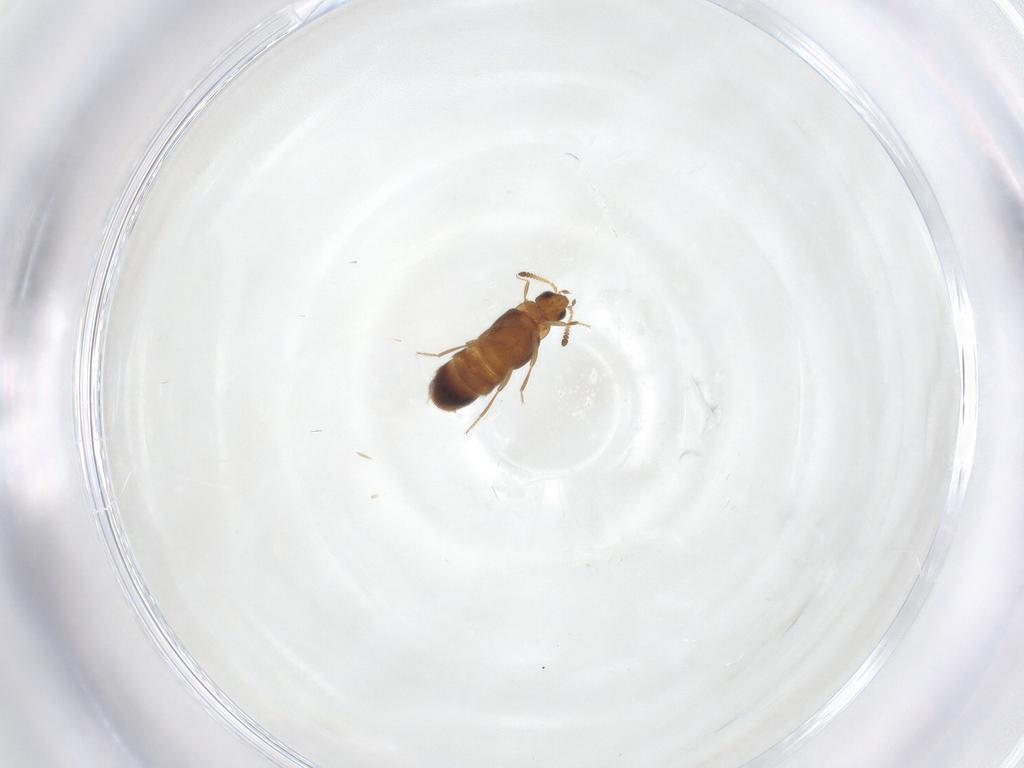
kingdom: Animalia
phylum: Arthropoda
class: Insecta
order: Coleoptera
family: Staphylinidae
